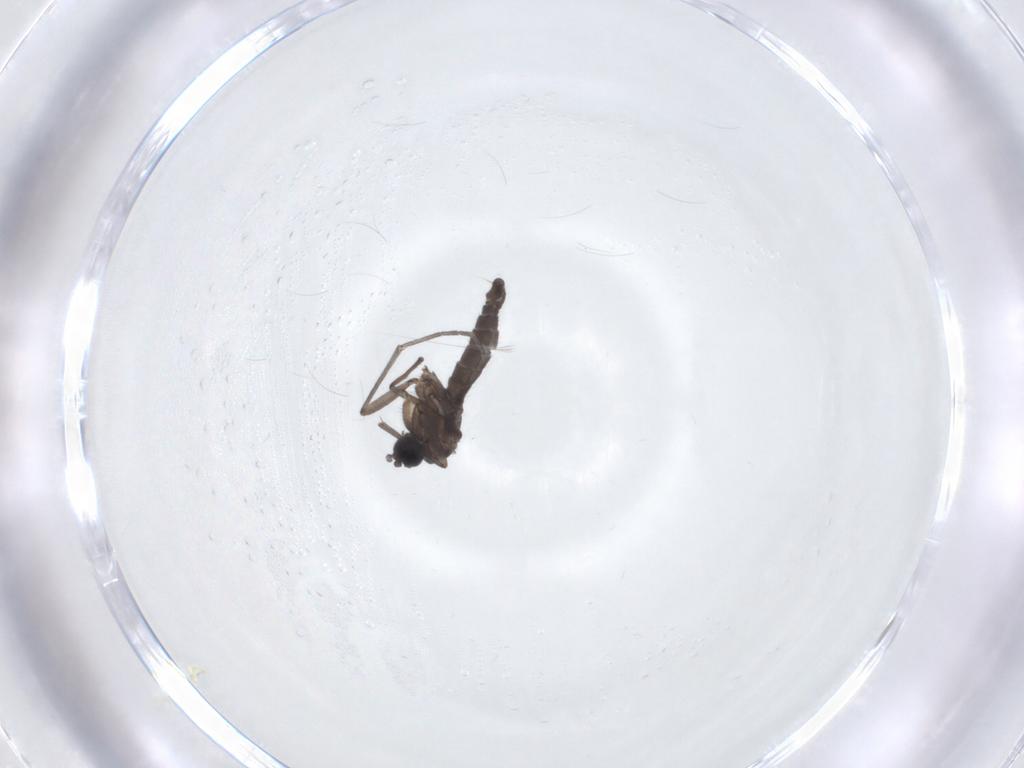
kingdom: Animalia
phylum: Arthropoda
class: Insecta
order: Diptera
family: Sciaridae
